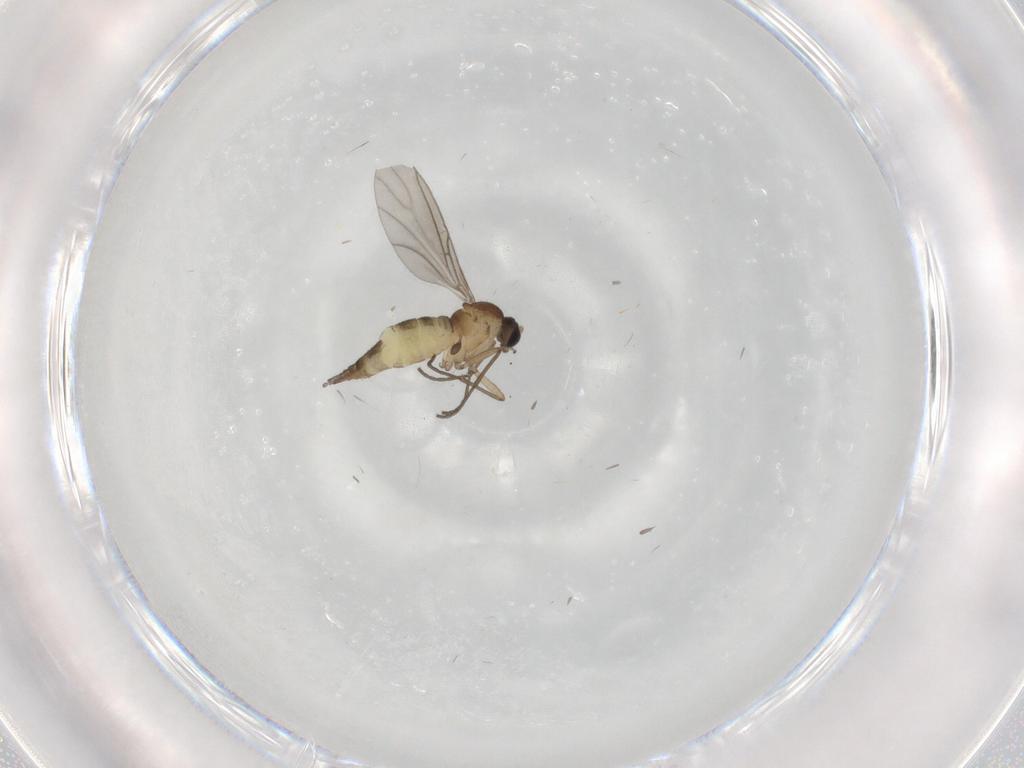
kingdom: Animalia
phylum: Arthropoda
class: Insecta
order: Diptera
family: Sciaridae
